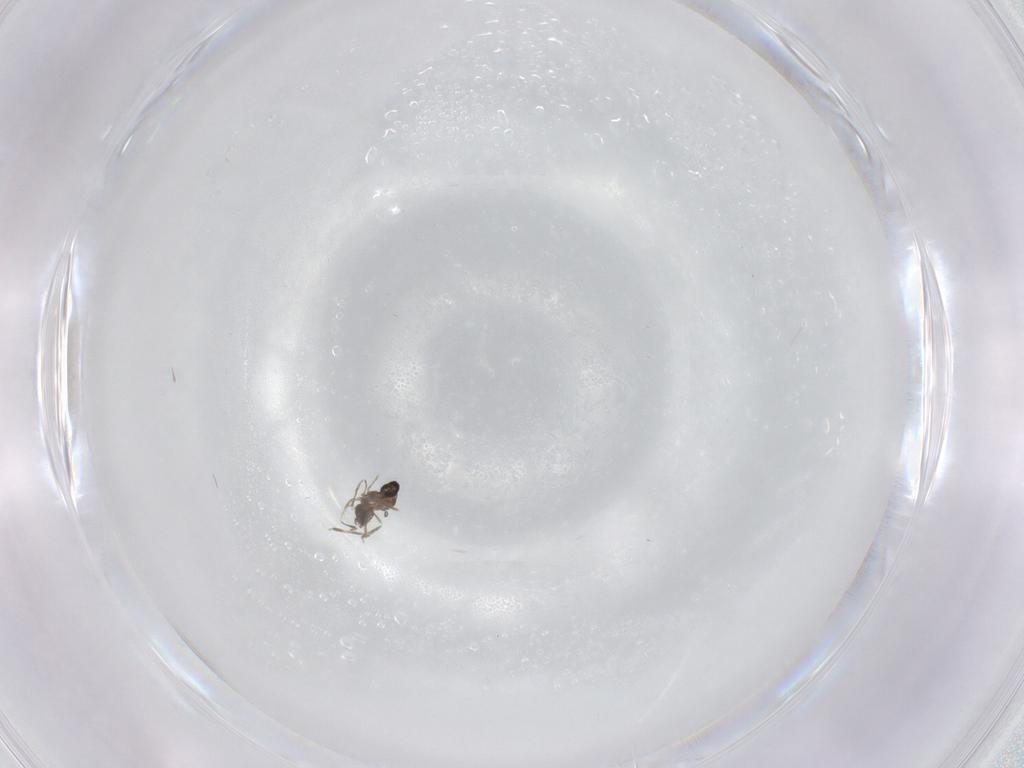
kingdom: Animalia
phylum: Arthropoda
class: Insecta
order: Diptera
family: Cecidomyiidae
